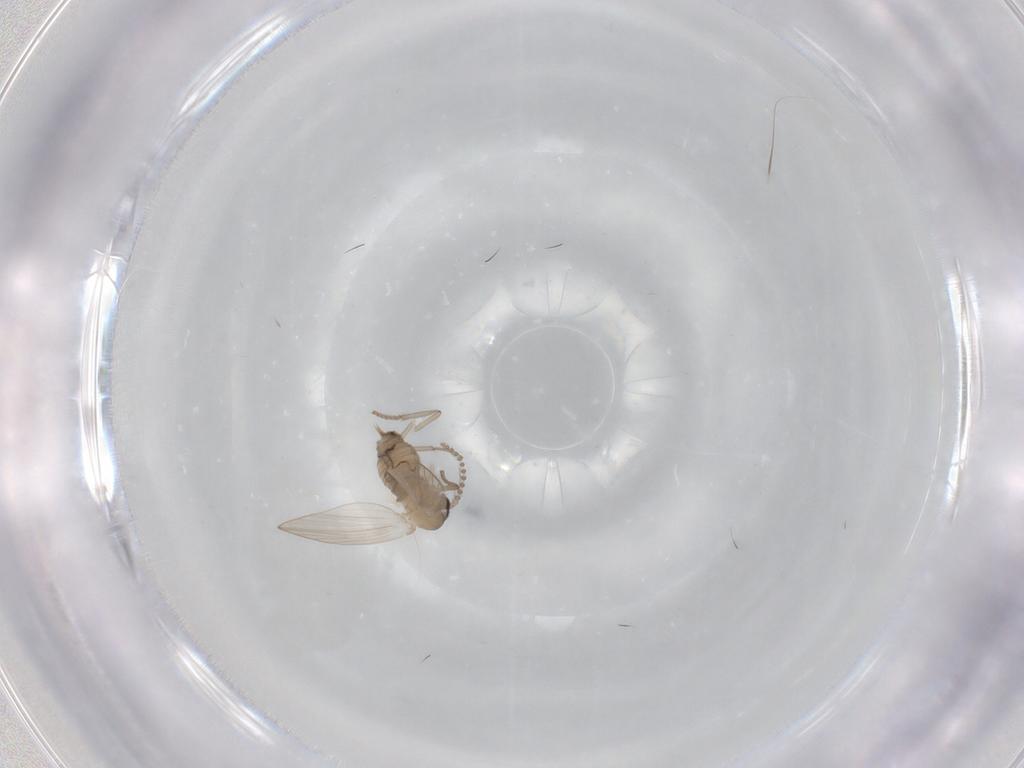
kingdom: Animalia
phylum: Arthropoda
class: Insecta
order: Diptera
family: Psychodidae
